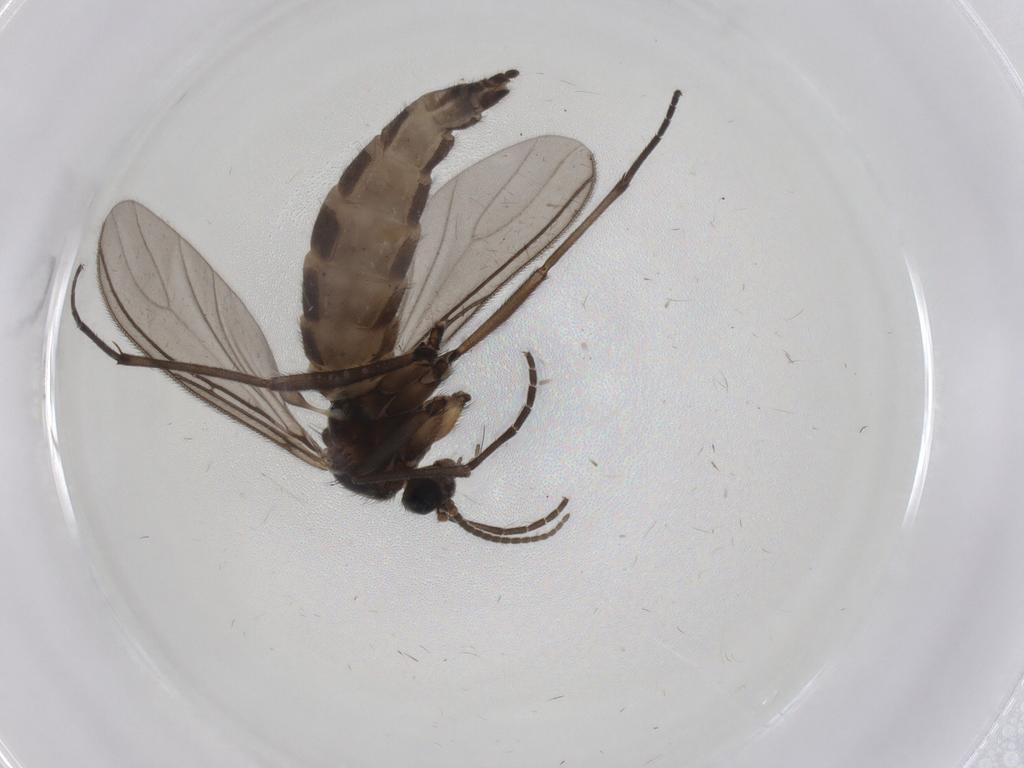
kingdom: Animalia
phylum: Arthropoda
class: Insecta
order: Diptera
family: Sciaridae
